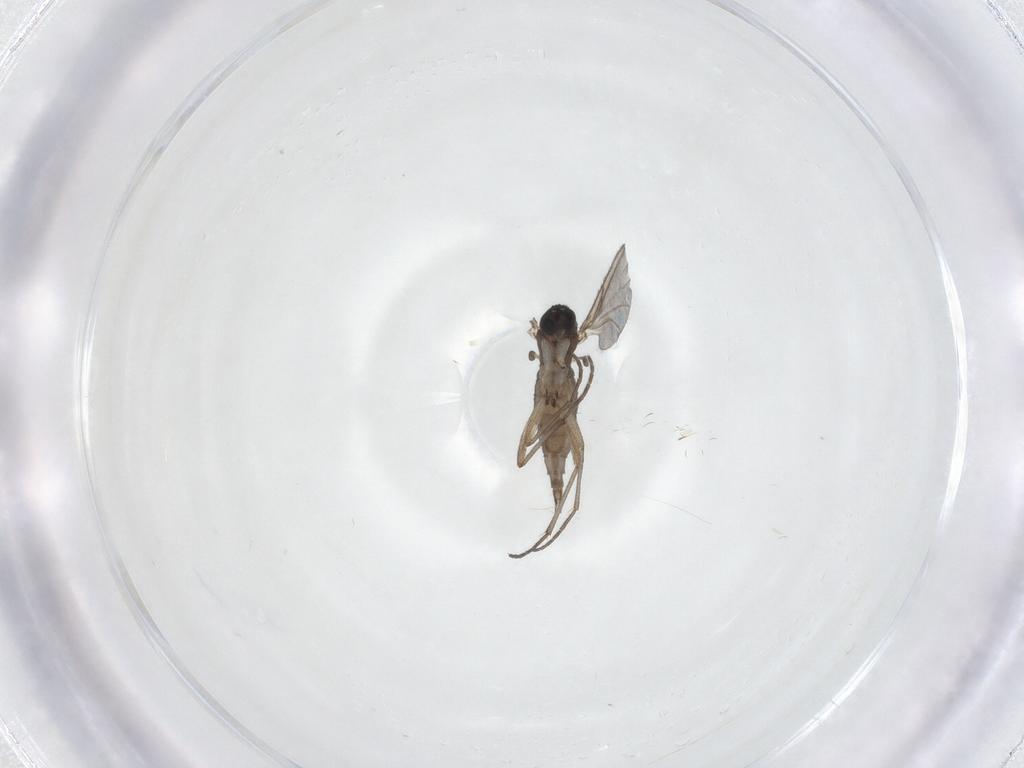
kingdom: Animalia
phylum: Arthropoda
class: Insecta
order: Diptera
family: Sciaridae
